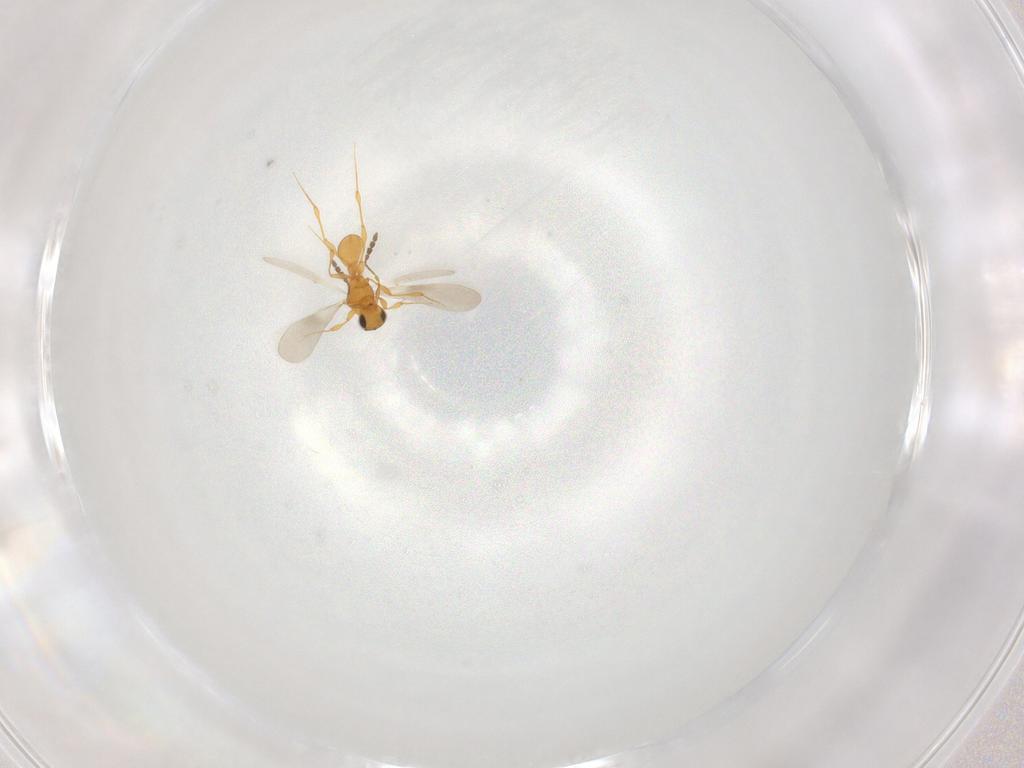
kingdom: Animalia
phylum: Arthropoda
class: Insecta
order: Hymenoptera
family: Platygastridae
